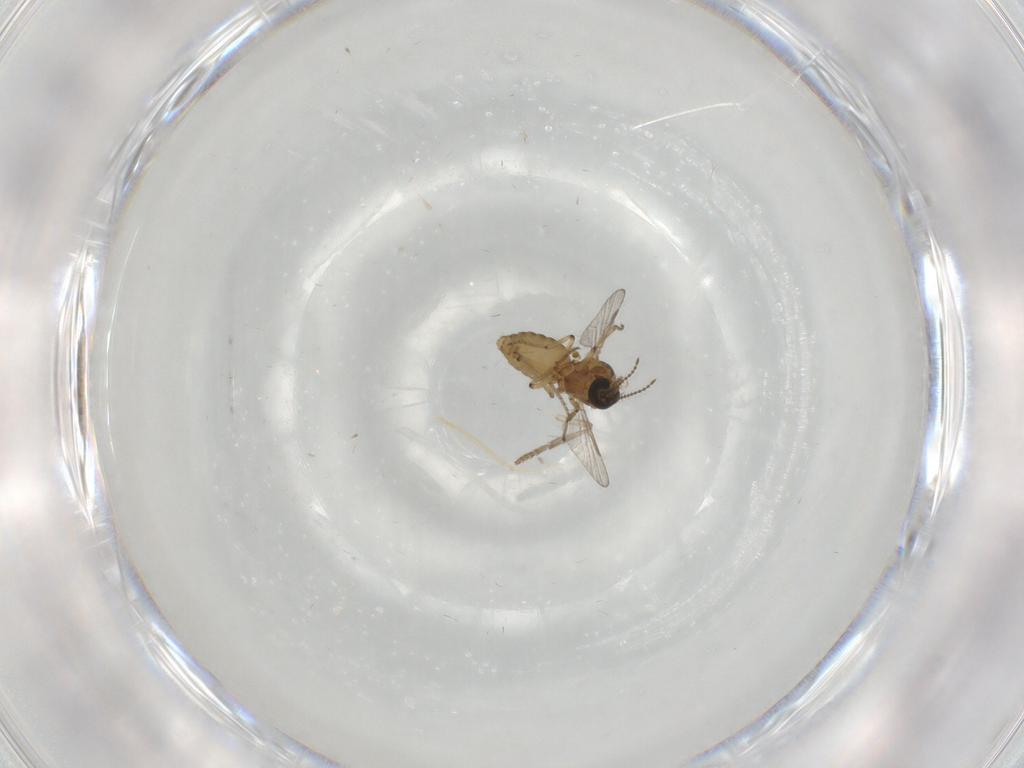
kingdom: Animalia
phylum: Arthropoda
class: Insecta
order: Diptera
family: Ceratopogonidae
